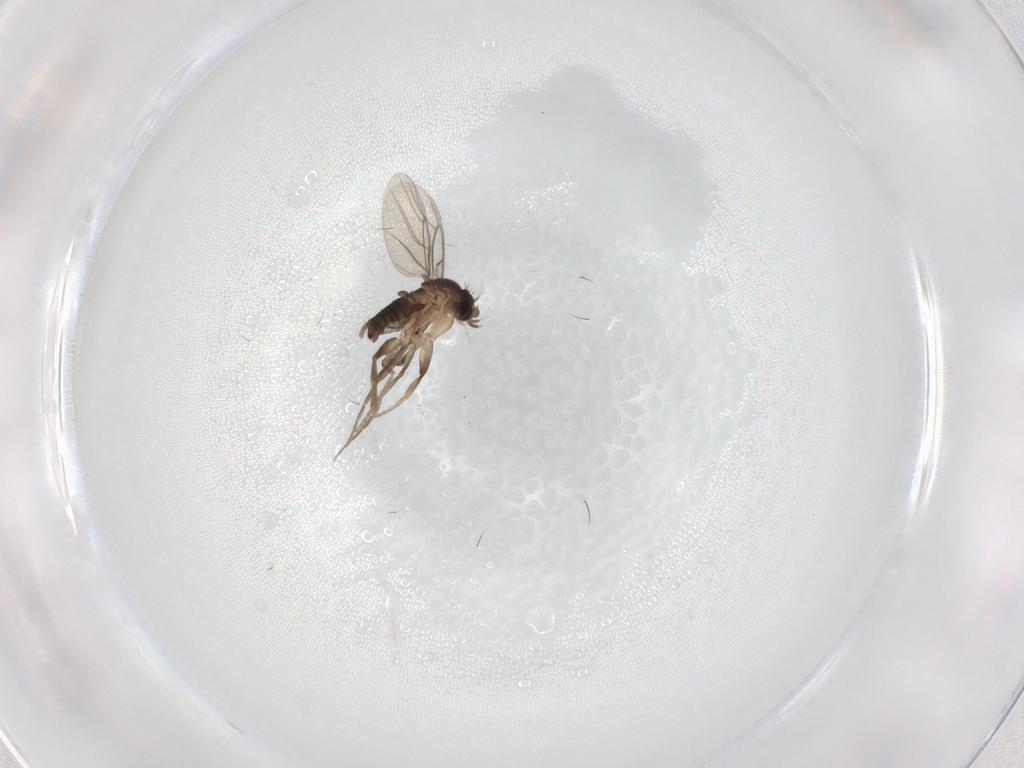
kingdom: Animalia
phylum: Arthropoda
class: Insecta
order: Diptera
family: Phoridae
